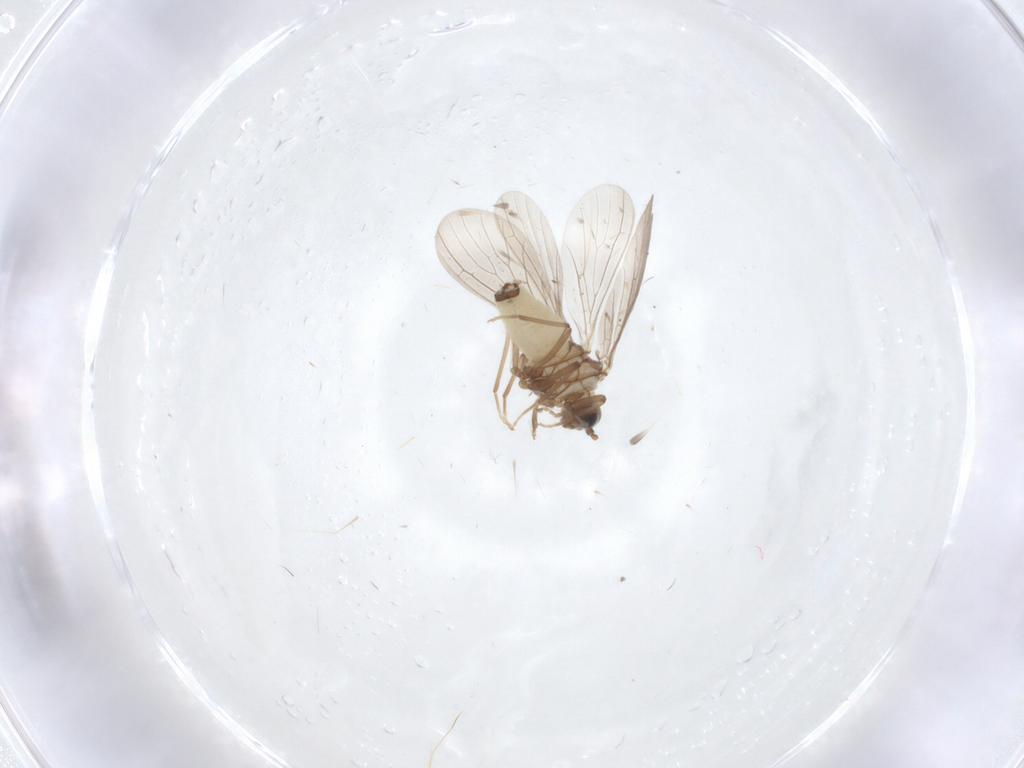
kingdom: Animalia
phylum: Arthropoda
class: Insecta
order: Neuroptera
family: Coniopterygidae
